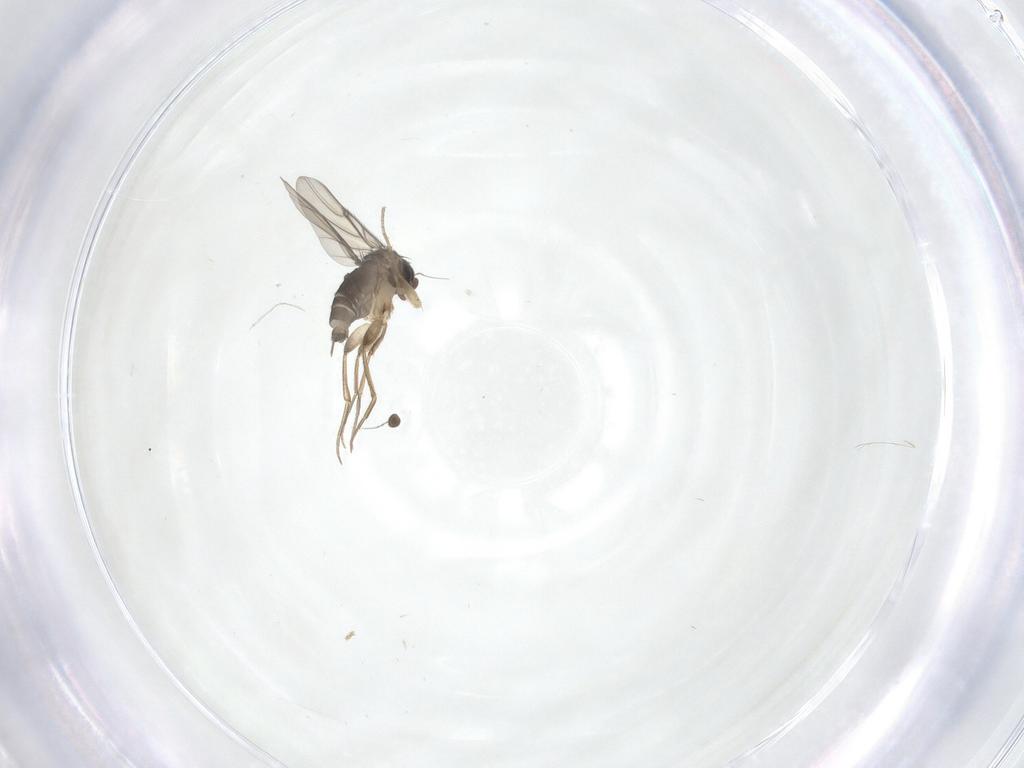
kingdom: Animalia
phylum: Arthropoda
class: Insecta
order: Diptera
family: Phoridae
